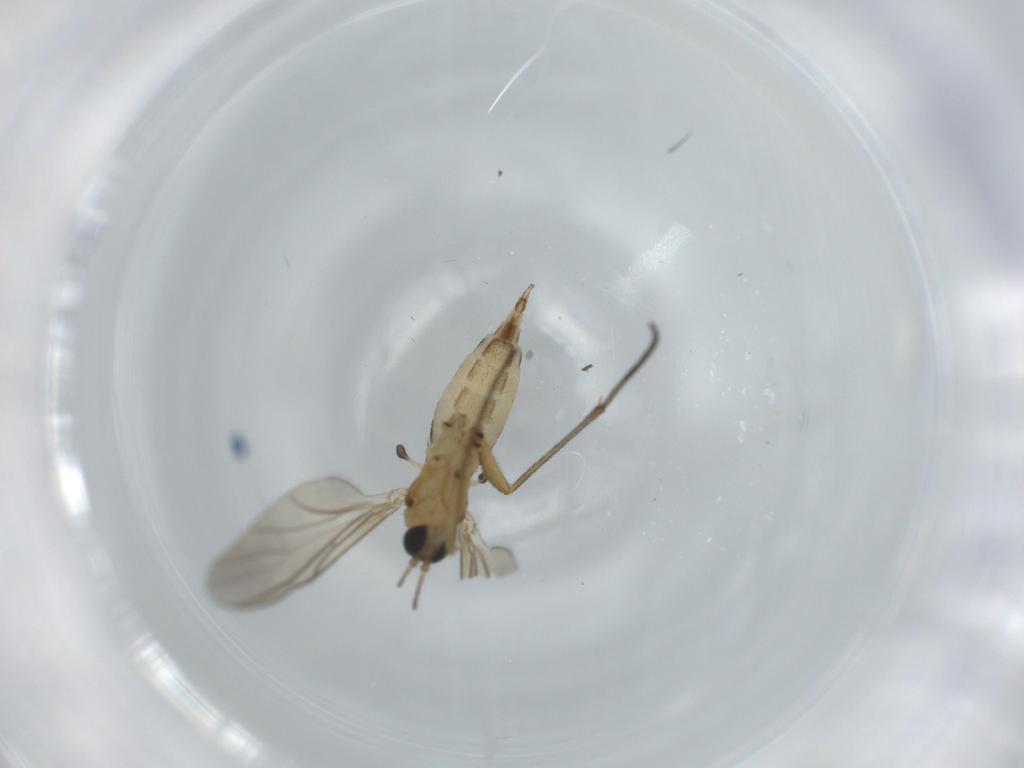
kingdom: Animalia
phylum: Arthropoda
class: Insecta
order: Diptera
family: Sciaridae
